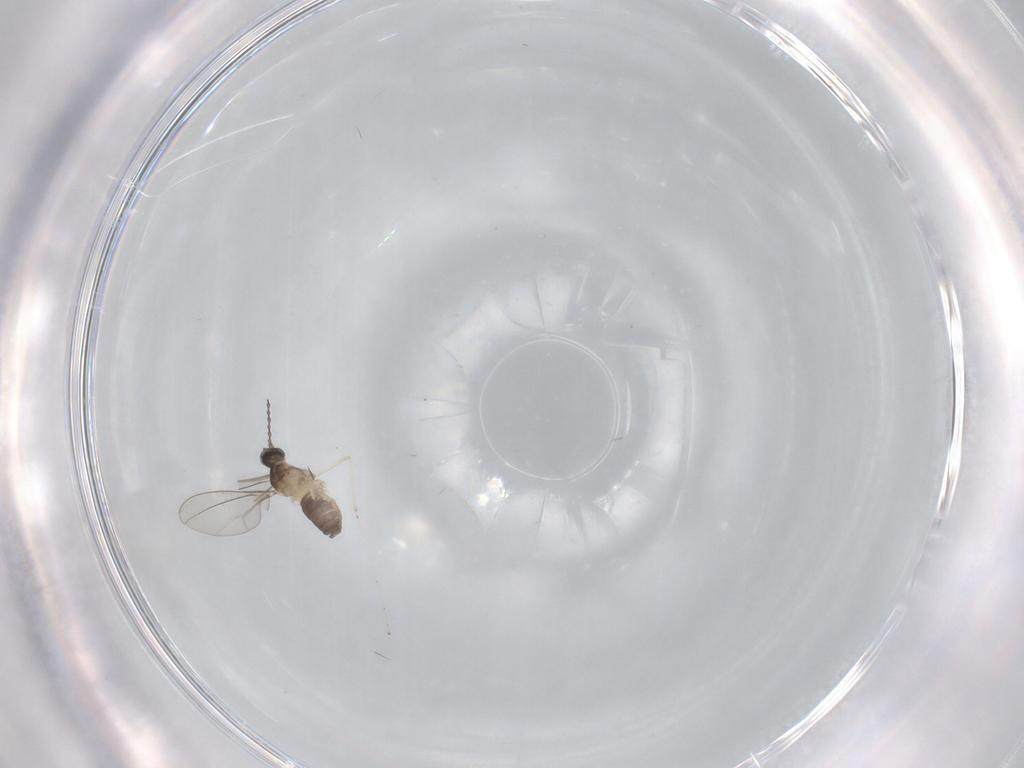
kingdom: Animalia
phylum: Arthropoda
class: Insecta
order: Diptera
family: Cecidomyiidae
